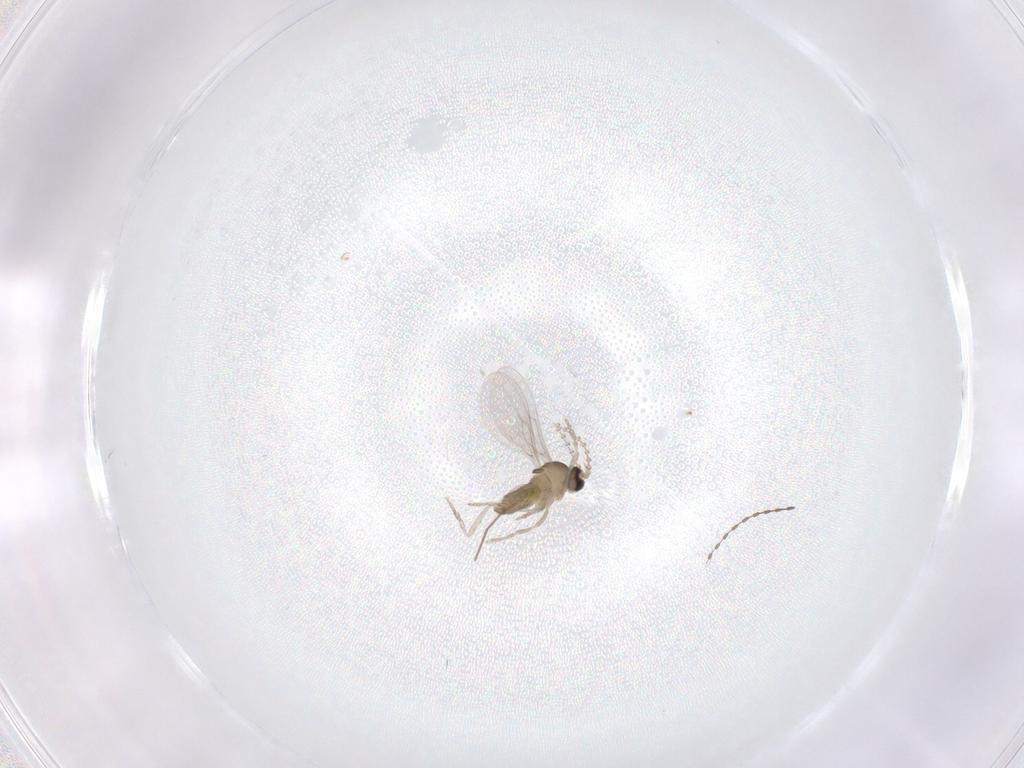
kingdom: Animalia
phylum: Arthropoda
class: Insecta
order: Diptera
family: Cecidomyiidae
